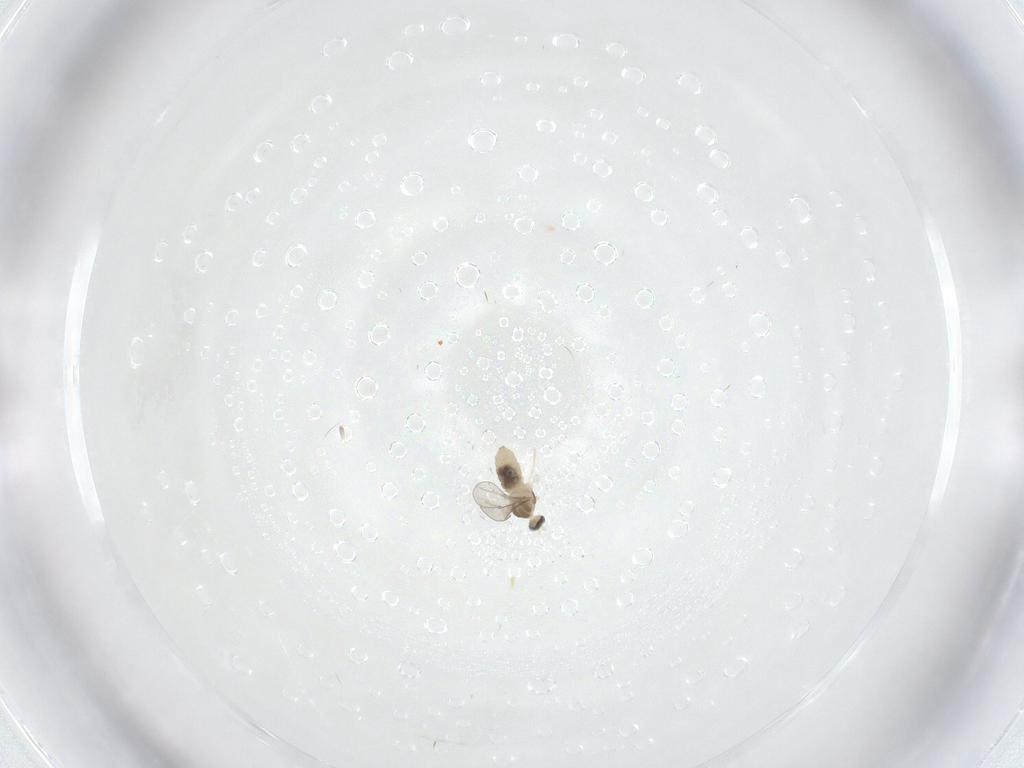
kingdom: Animalia
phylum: Arthropoda
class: Insecta
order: Diptera
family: Cecidomyiidae
